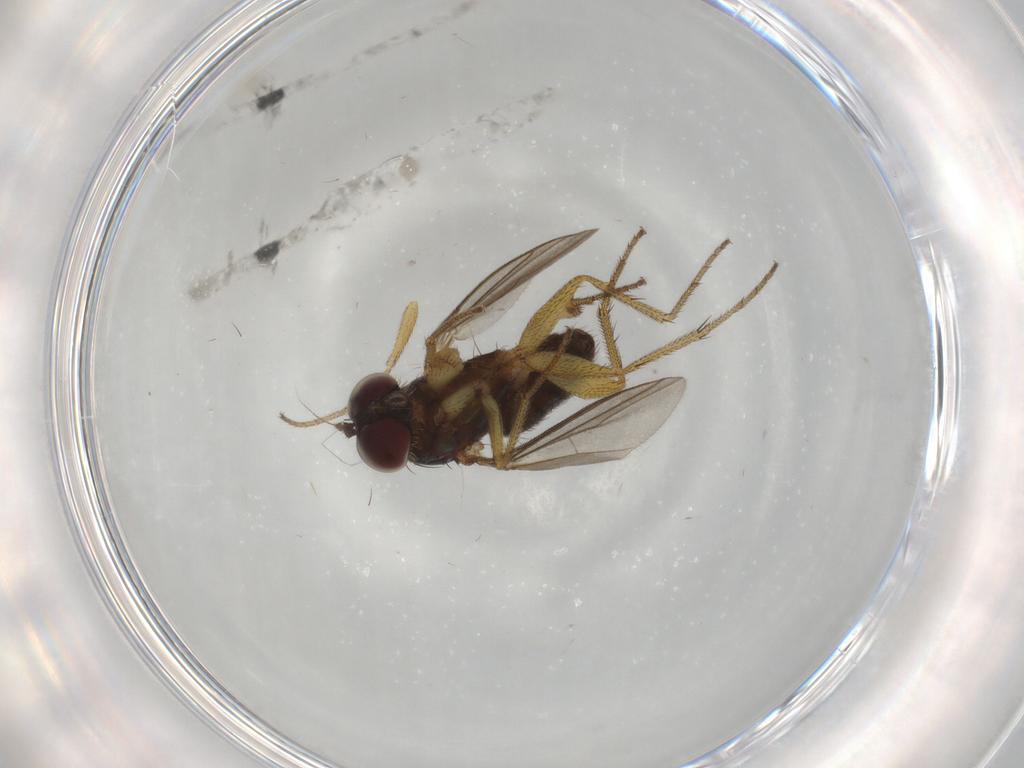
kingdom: Animalia
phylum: Arthropoda
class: Insecta
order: Diptera
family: Dolichopodidae
